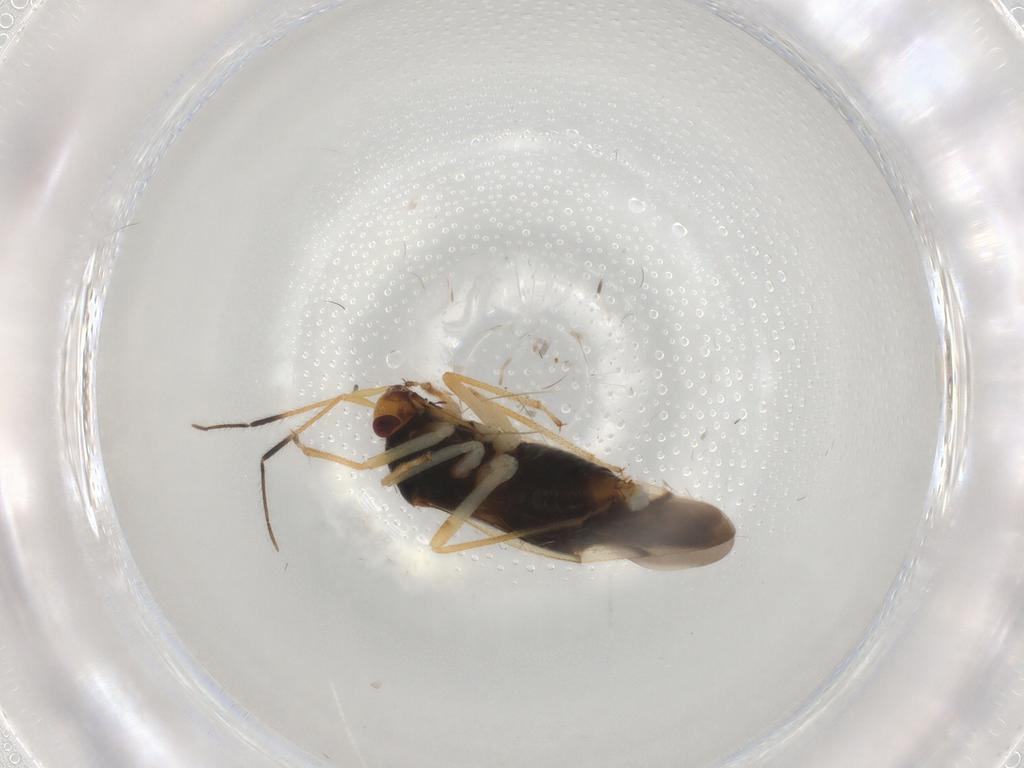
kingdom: Animalia
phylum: Arthropoda
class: Insecta
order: Hemiptera
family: Miridae
